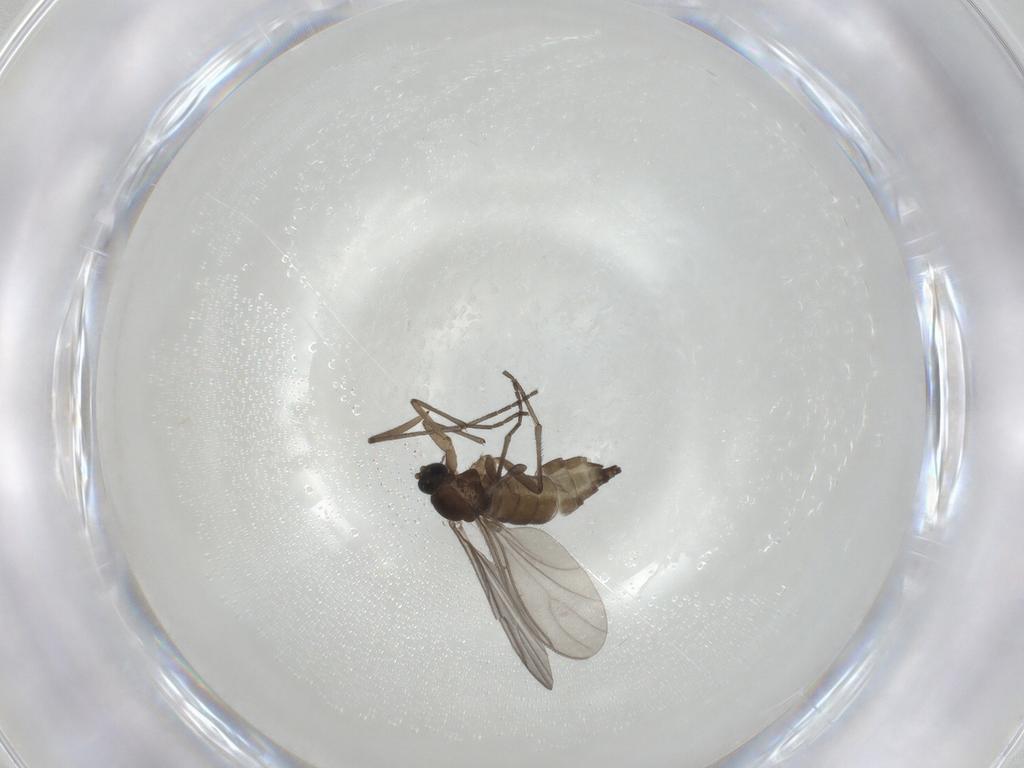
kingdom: Animalia
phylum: Arthropoda
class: Insecta
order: Diptera
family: Sciaridae
